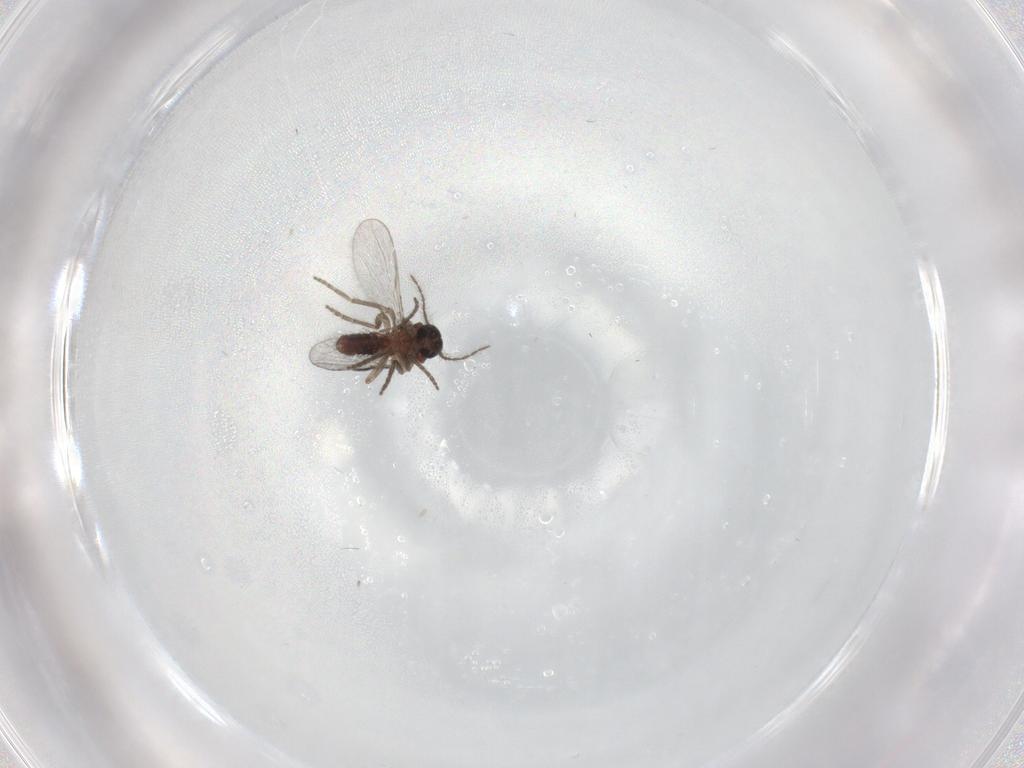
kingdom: Animalia
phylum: Arthropoda
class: Insecta
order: Diptera
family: Ceratopogonidae
